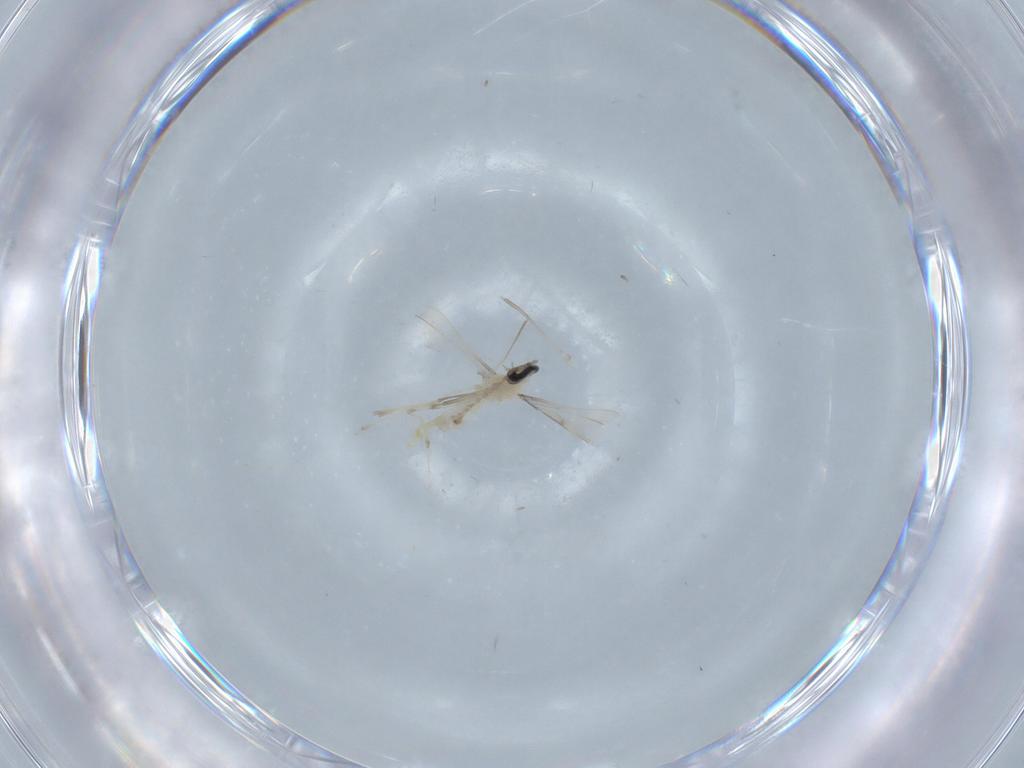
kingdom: Animalia
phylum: Arthropoda
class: Insecta
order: Diptera
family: Cecidomyiidae
